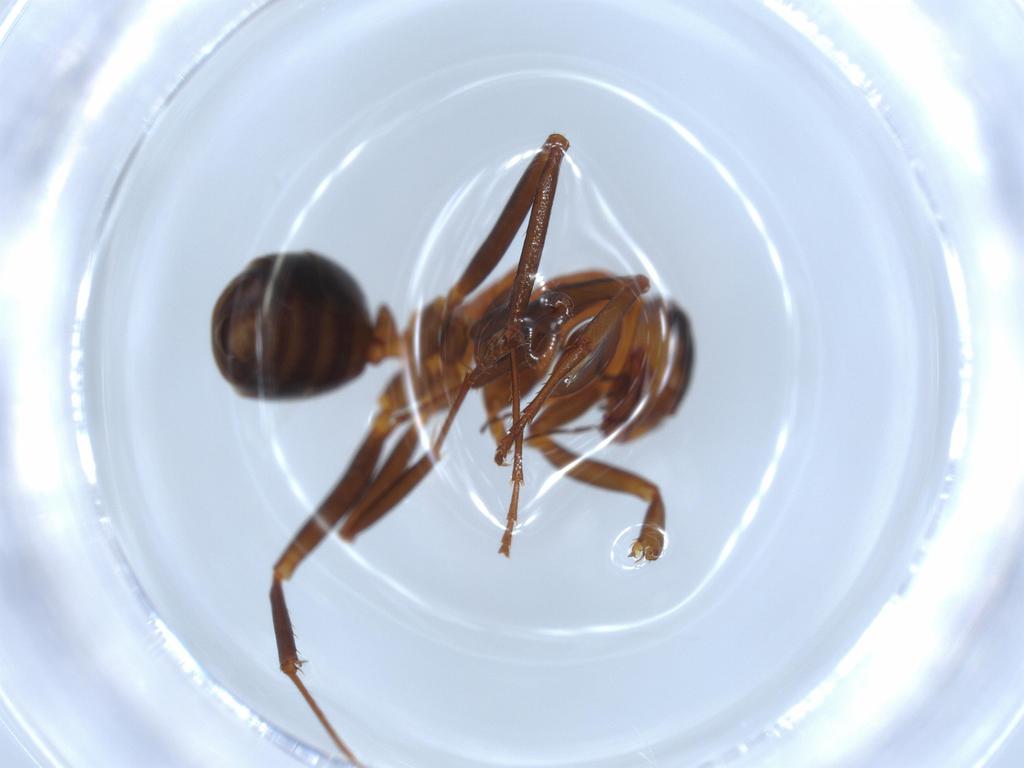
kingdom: Animalia
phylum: Arthropoda
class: Insecta
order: Hymenoptera
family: Formicidae
